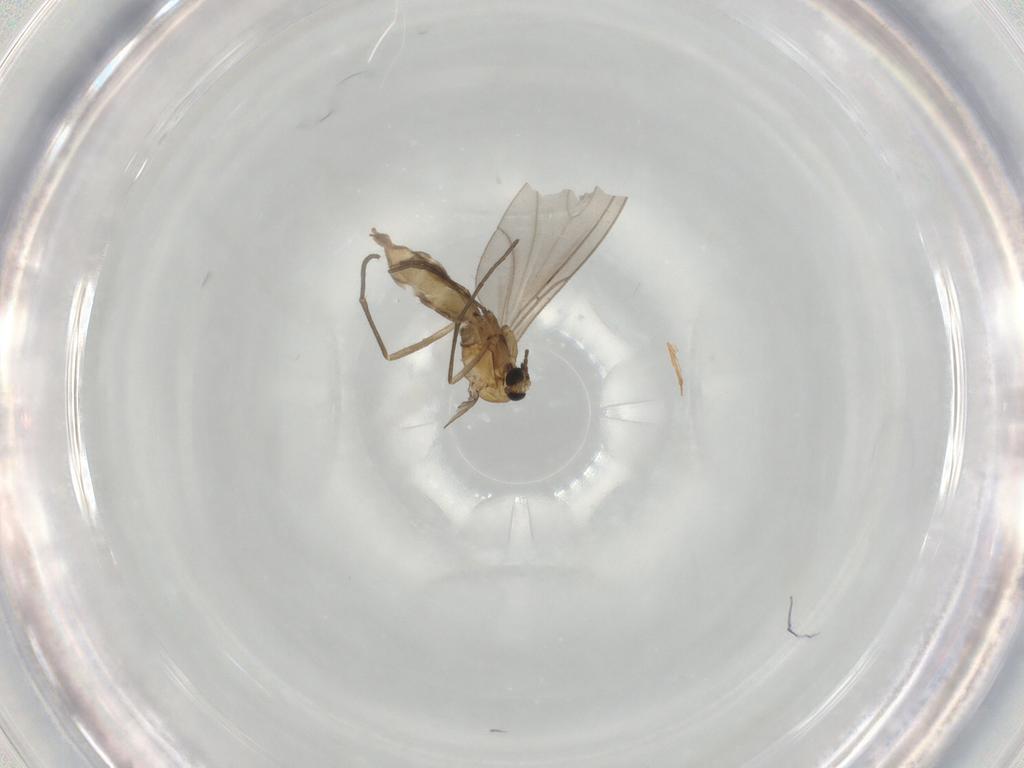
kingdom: Animalia
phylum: Arthropoda
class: Insecta
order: Diptera
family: Sciaridae
